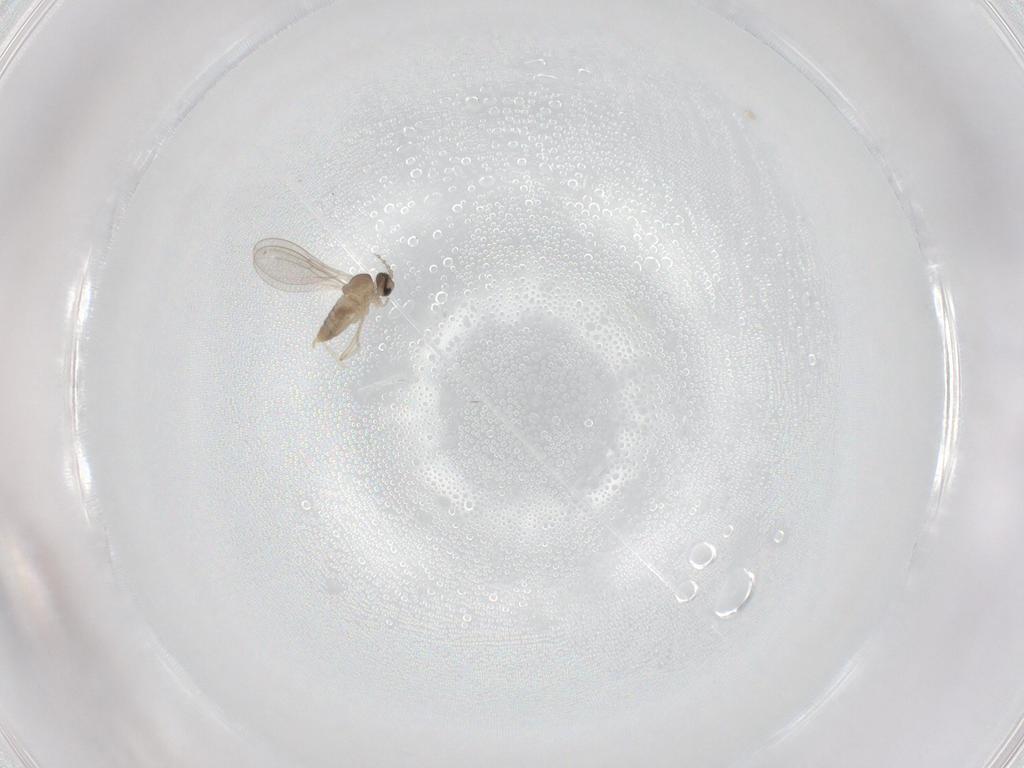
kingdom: Animalia
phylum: Arthropoda
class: Insecta
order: Diptera
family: Cecidomyiidae
